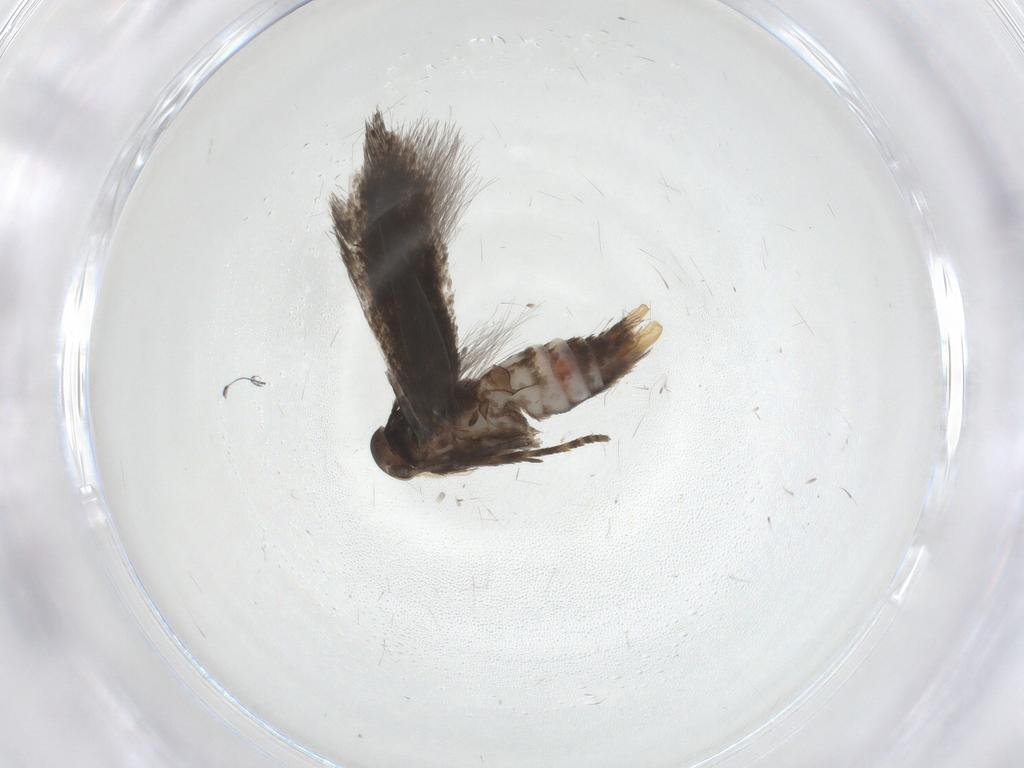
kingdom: Animalia
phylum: Arthropoda
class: Insecta
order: Lepidoptera
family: Elachistidae
